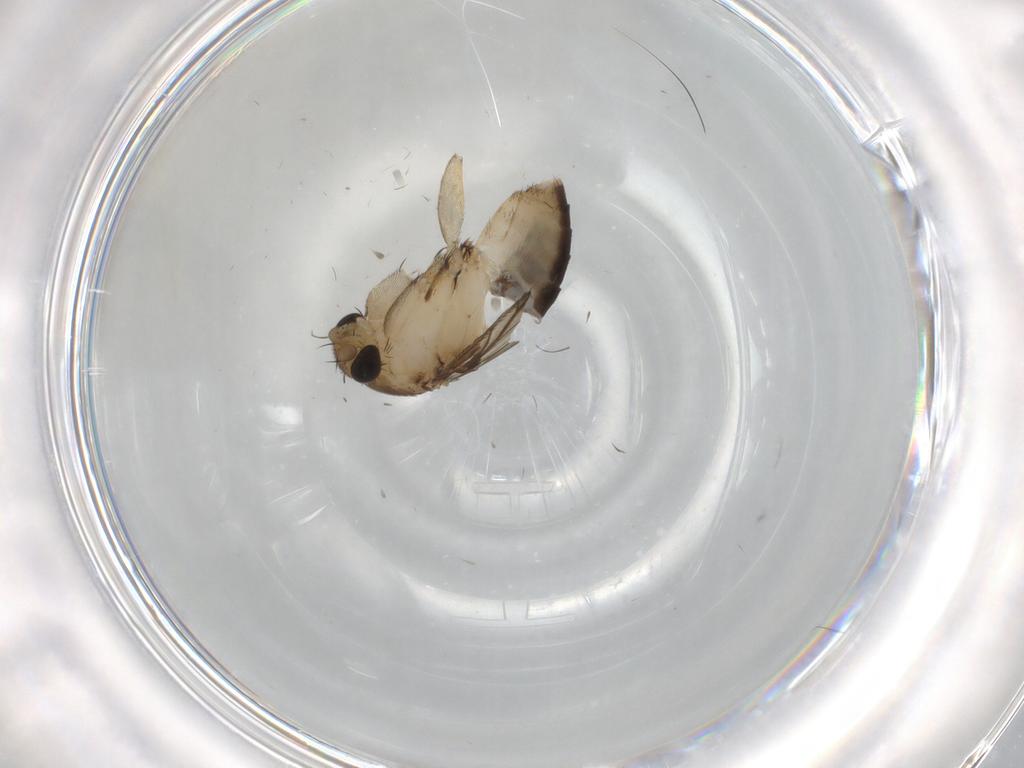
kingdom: Animalia
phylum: Arthropoda
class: Insecta
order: Diptera
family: Phoridae
